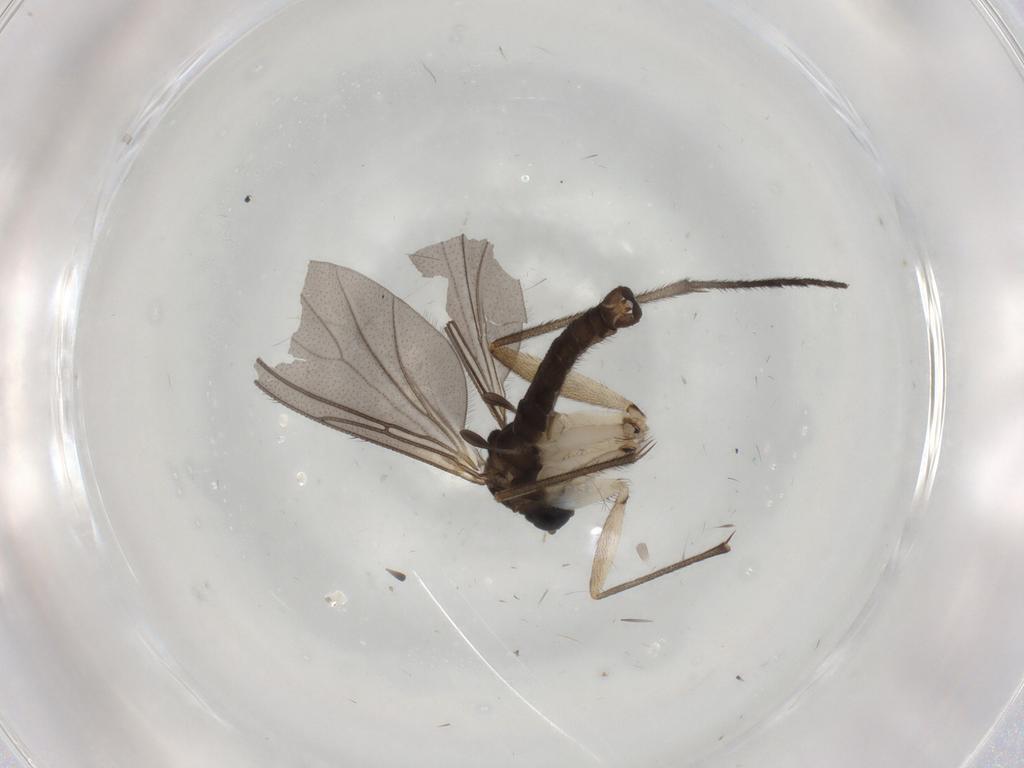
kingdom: Animalia
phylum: Arthropoda
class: Insecta
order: Diptera
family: Sciaridae
